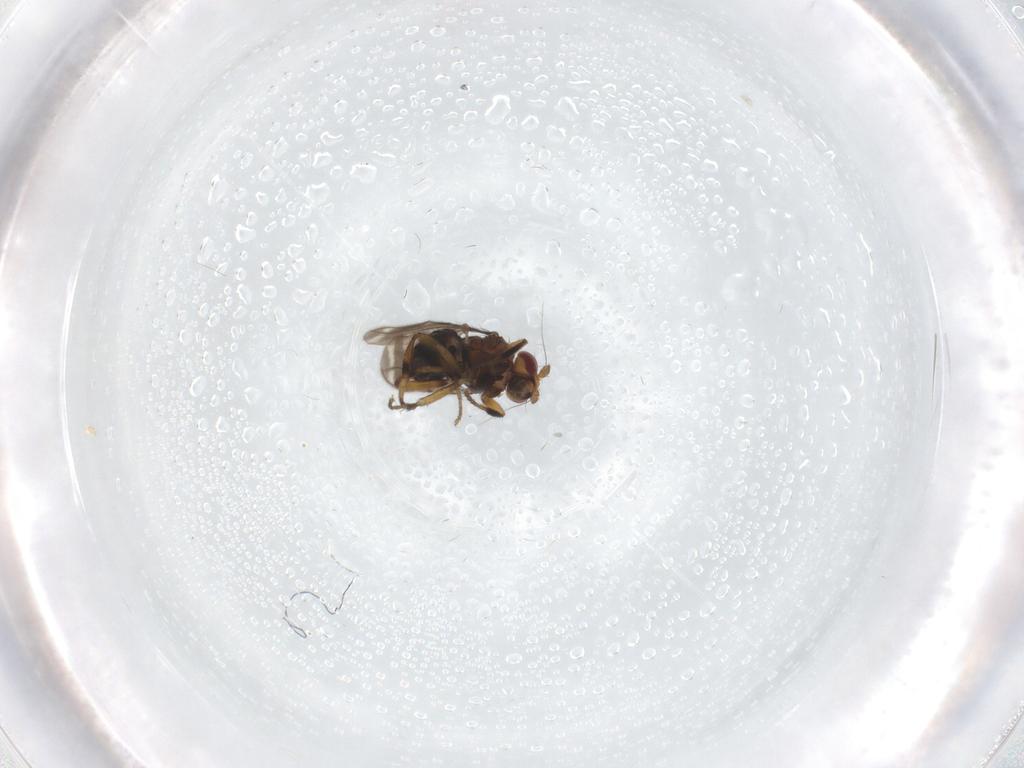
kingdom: Animalia
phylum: Arthropoda
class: Insecta
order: Diptera
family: Sphaeroceridae
